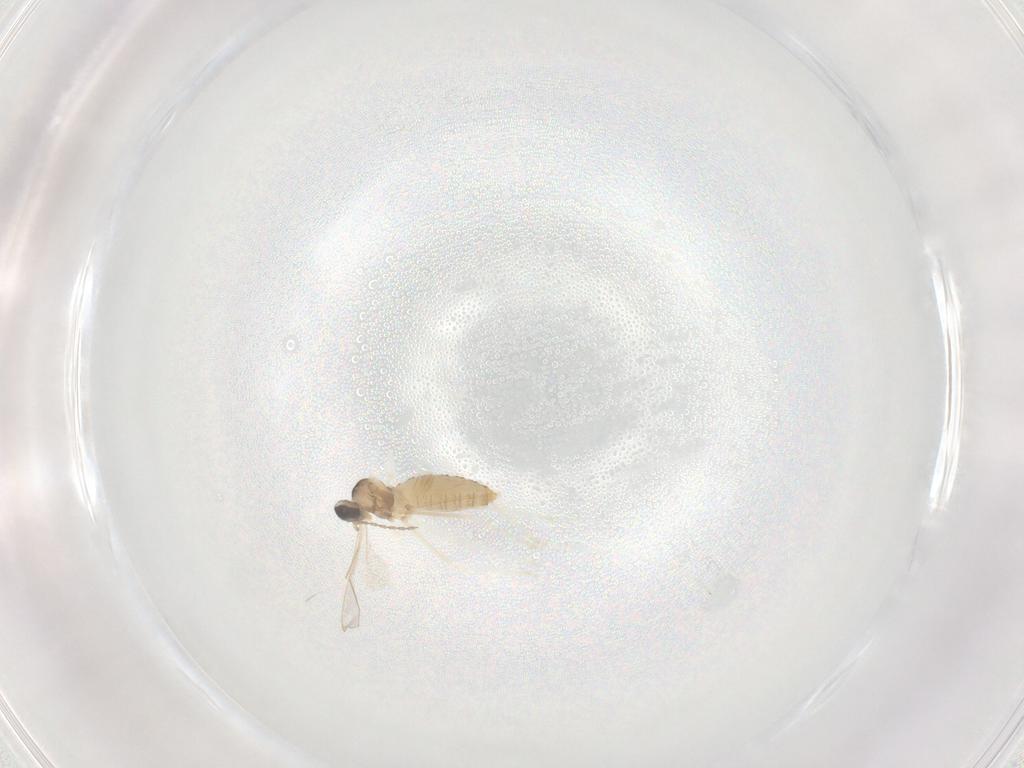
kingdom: Animalia
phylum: Arthropoda
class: Insecta
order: Diptera
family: Cecidomyiidae
